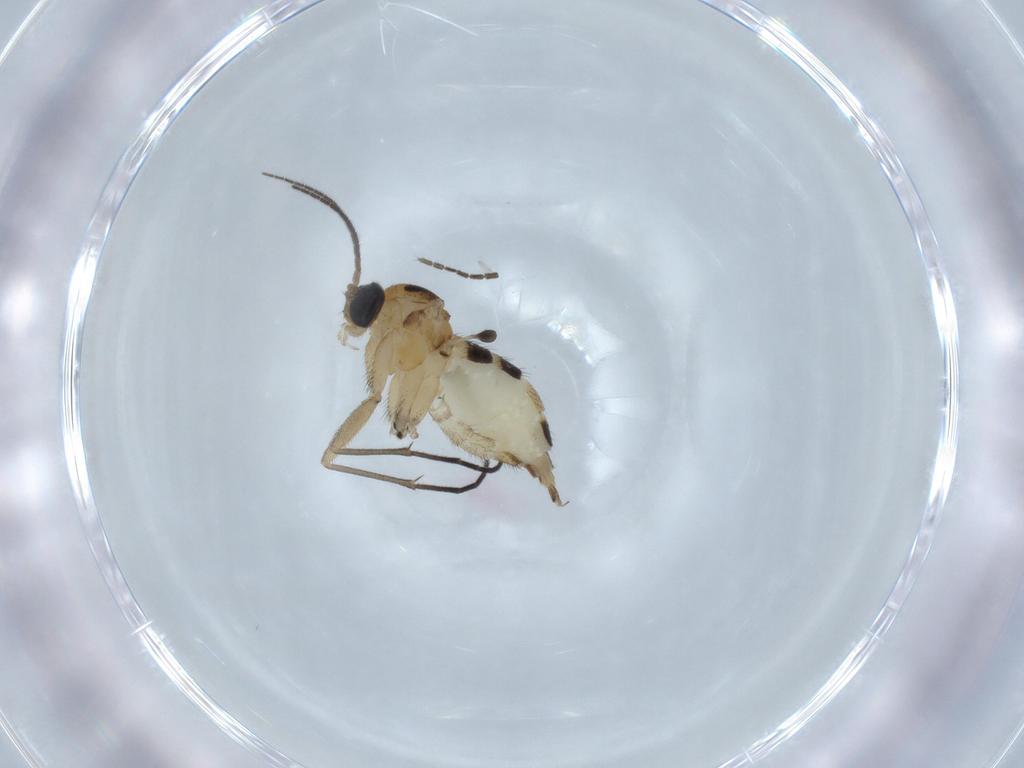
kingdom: Animalia
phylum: Arthropoda
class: Insecta
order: Diptera
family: Sciaridae
